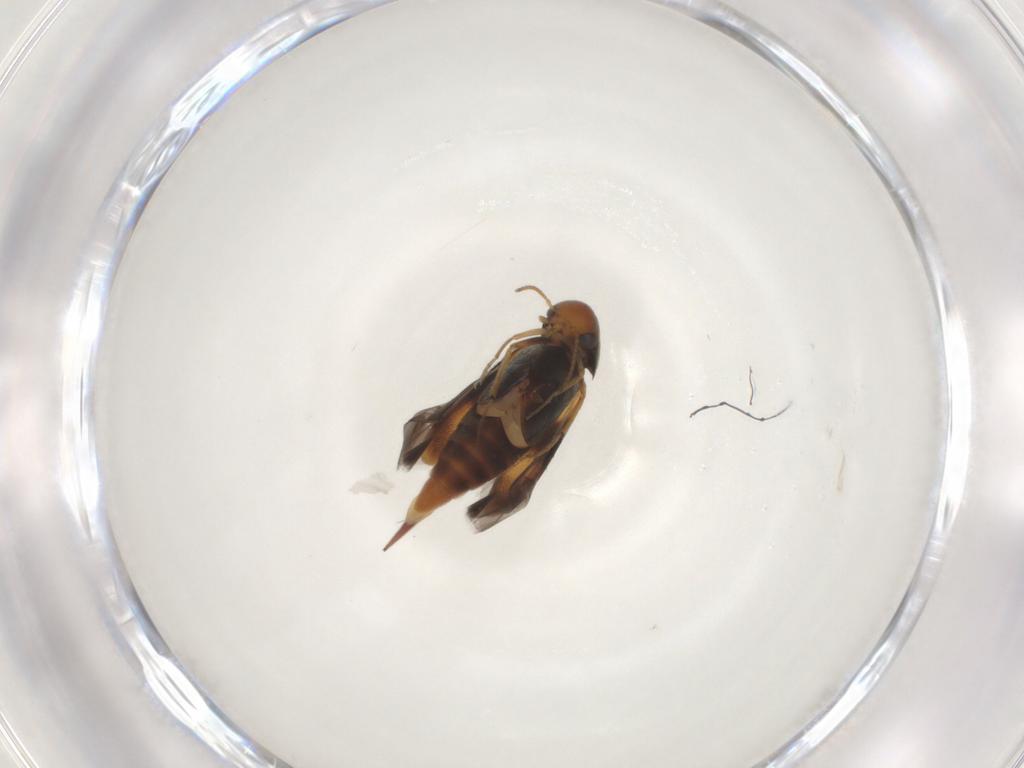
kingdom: Animalia
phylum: Arthropoda
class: Insecta
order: Coleoptera
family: Mordellidae
